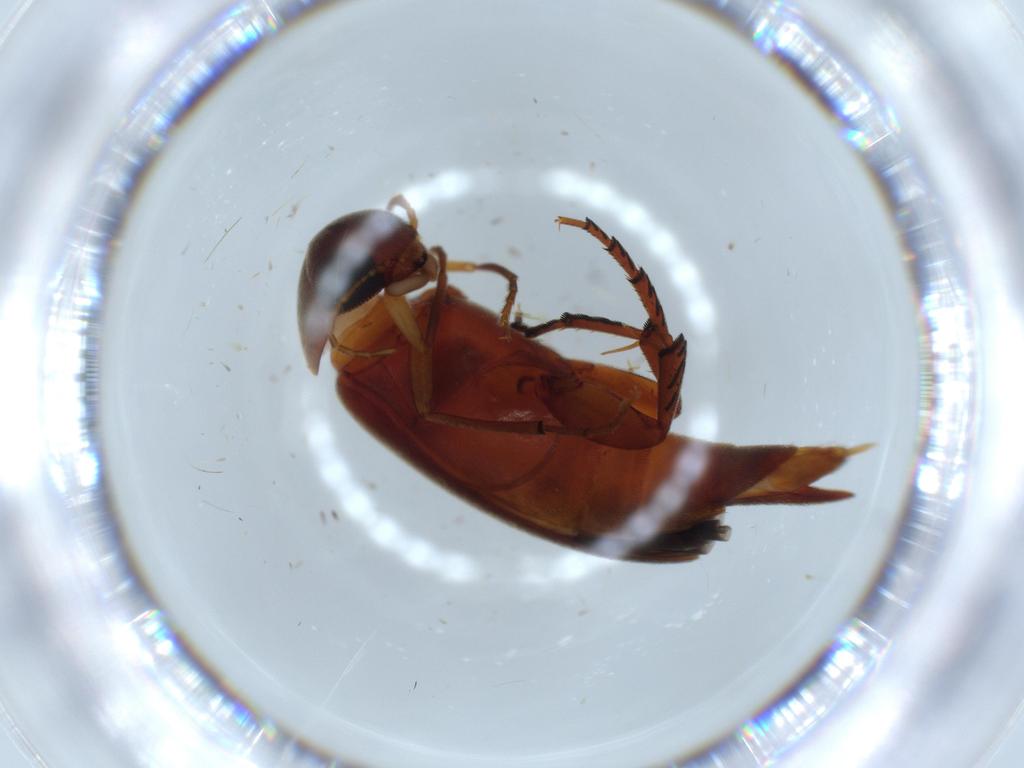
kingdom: Animalia
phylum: Arthropoda
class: Insecta
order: Coleoptera
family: Mordellidae
